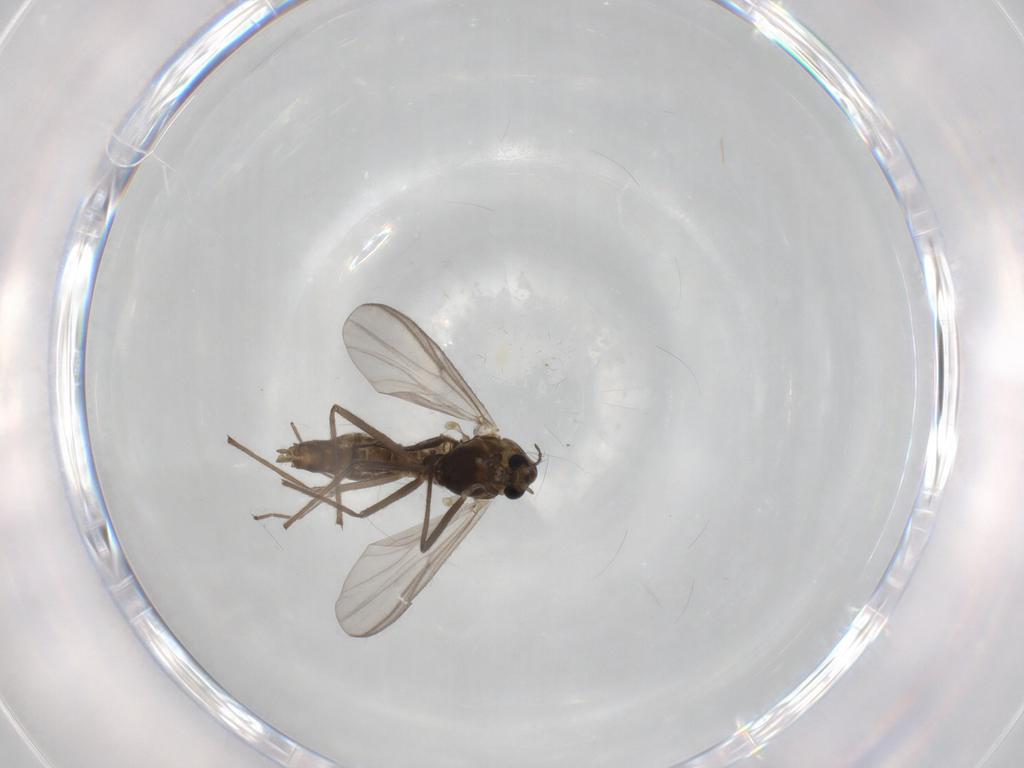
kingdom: Animalia
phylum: Arthropoda
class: Insecta
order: Diptera
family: Chironomidae
